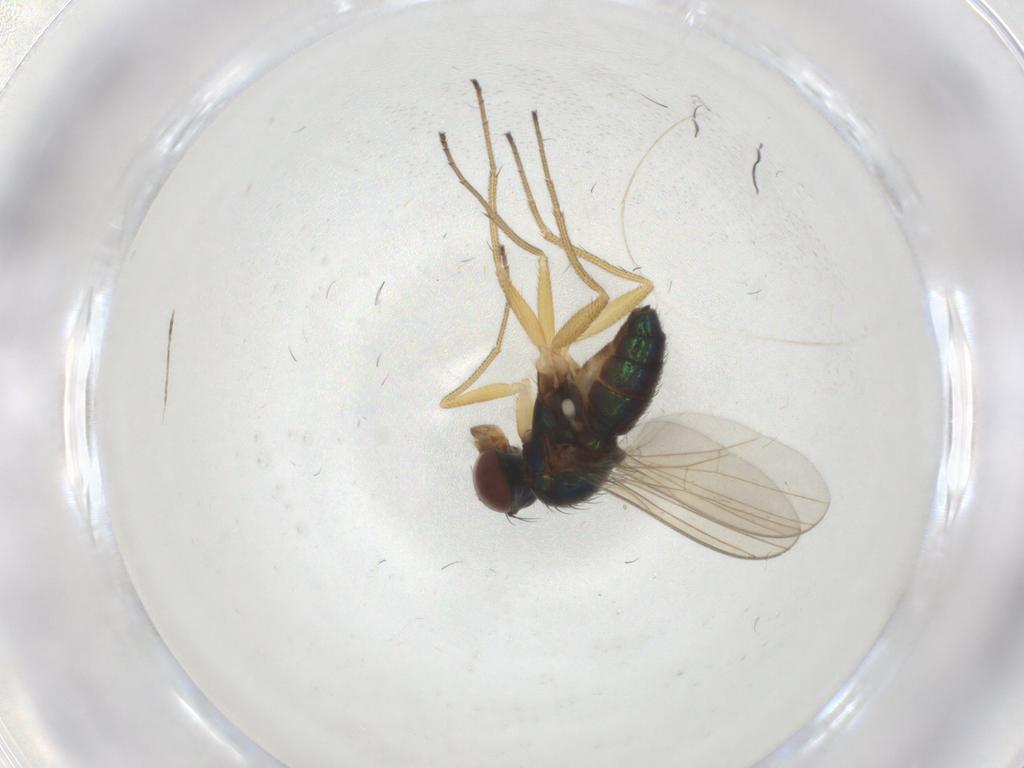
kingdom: Animalia
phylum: Arthropoda
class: Insecta
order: Diptera
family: Dolichopodidae
